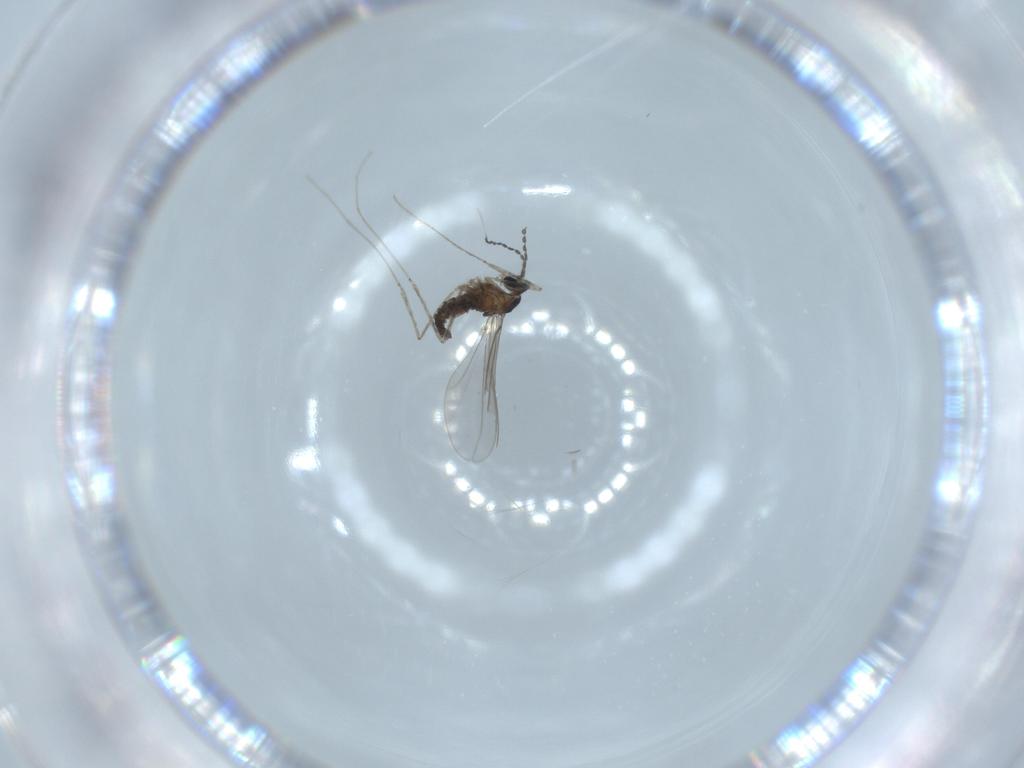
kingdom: Animalia
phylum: Arthropoda
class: Insecta
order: Diptera
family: Cecidomyiidae
